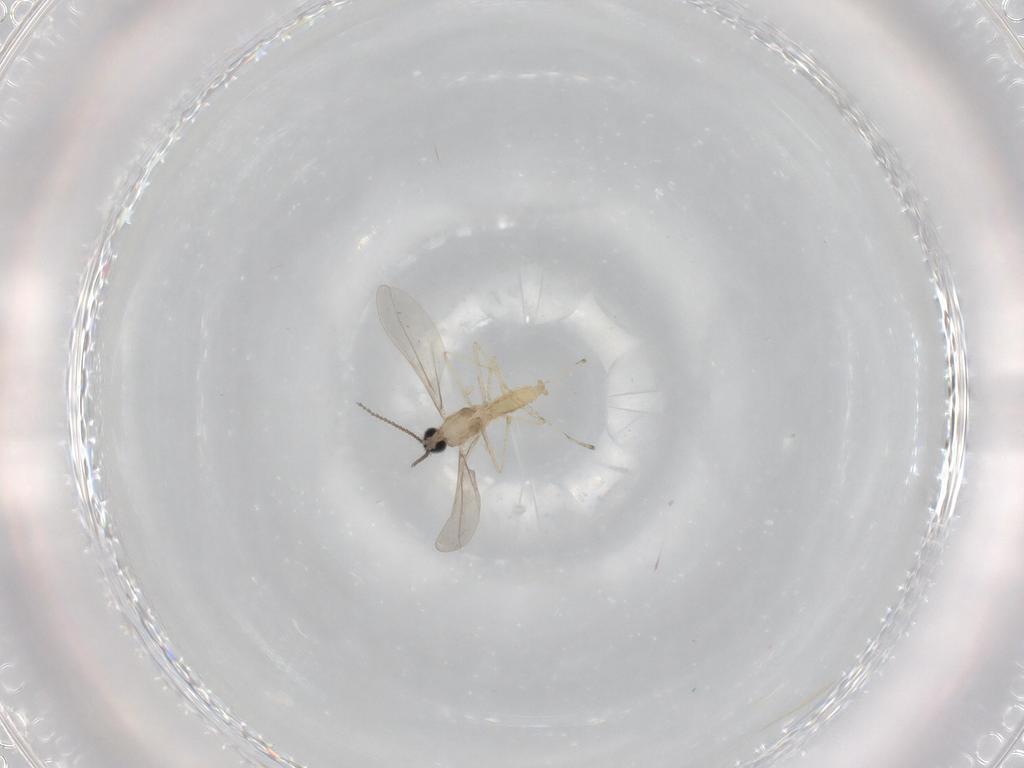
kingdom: Animalia
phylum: Arthropoda
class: Insecta
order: Diptera
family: Cecidomyiidae
